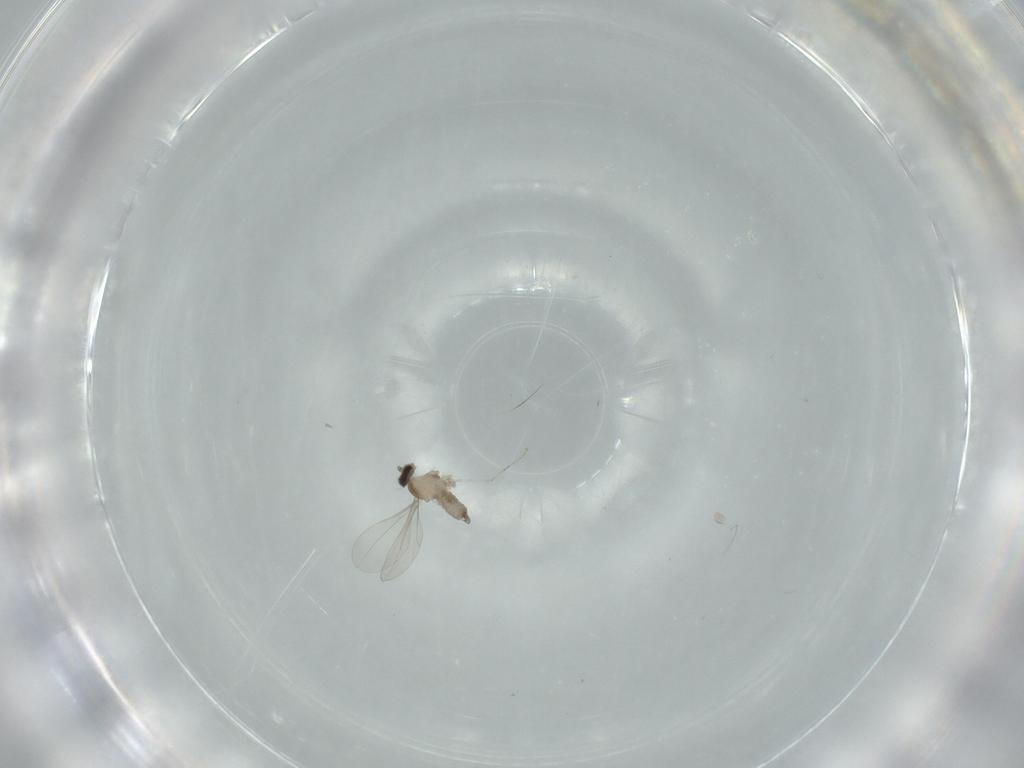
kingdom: Animalia
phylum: Arthropoda
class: Insecta
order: Diptera
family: Cecidomyiidae
